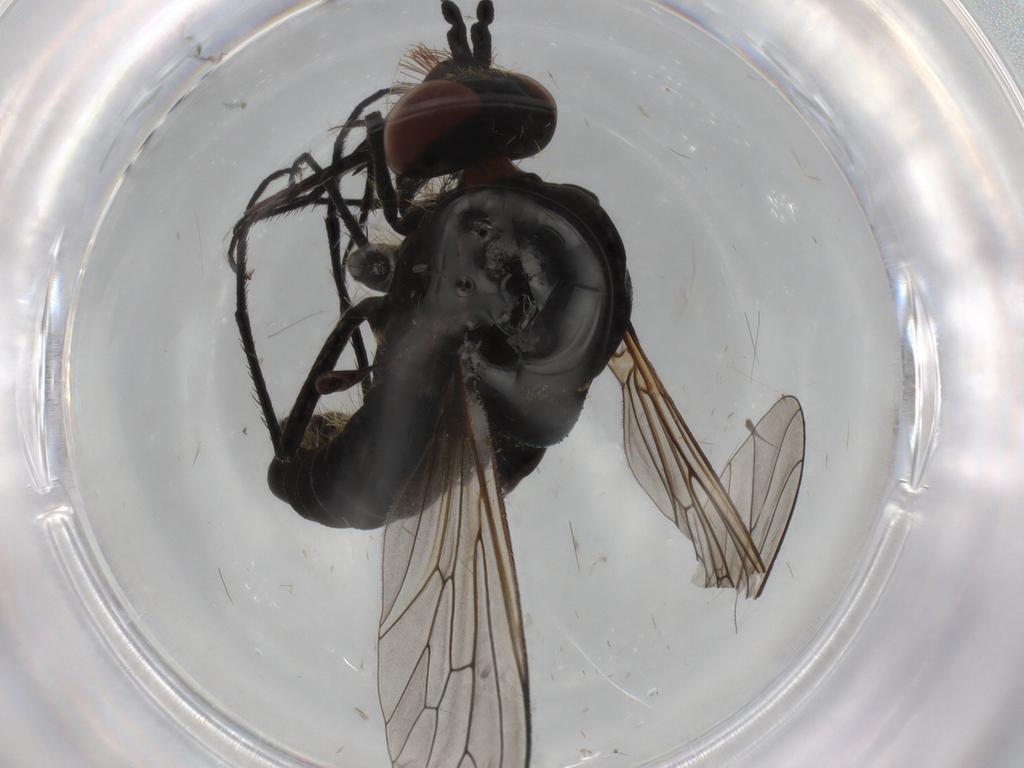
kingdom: Animalia
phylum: Arthropoda
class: Insecta
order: Diptera
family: Bombyliidae
